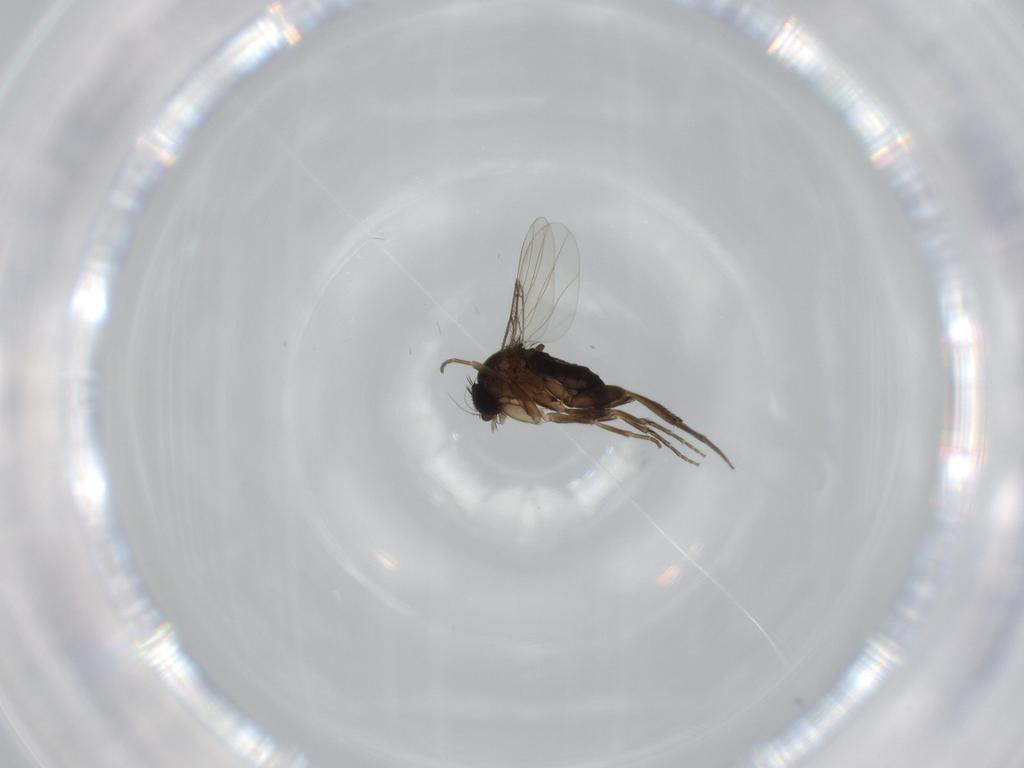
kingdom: Animalia
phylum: Arthropoda
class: Insecta
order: Diptera
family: Phoridae
